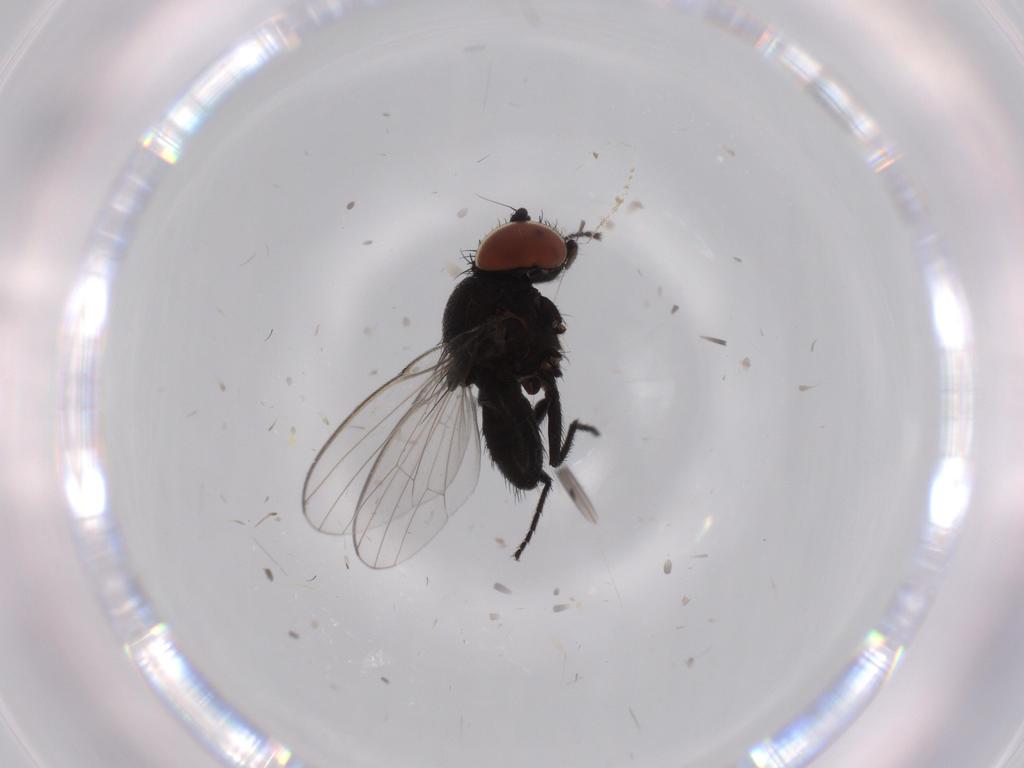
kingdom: Animalia
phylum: Arthropoda
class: Insecta
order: Diptera
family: Milichiidae
